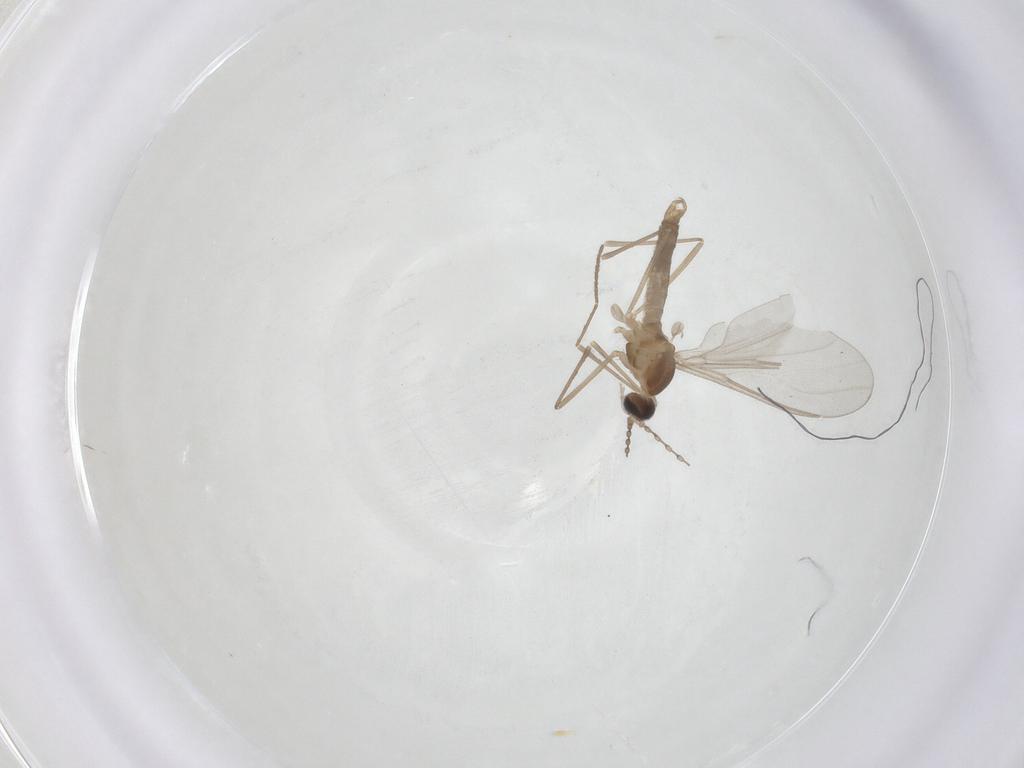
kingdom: Animalia
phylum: Arthropoda
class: Insecta
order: Diptera
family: Cecidomyiidae
